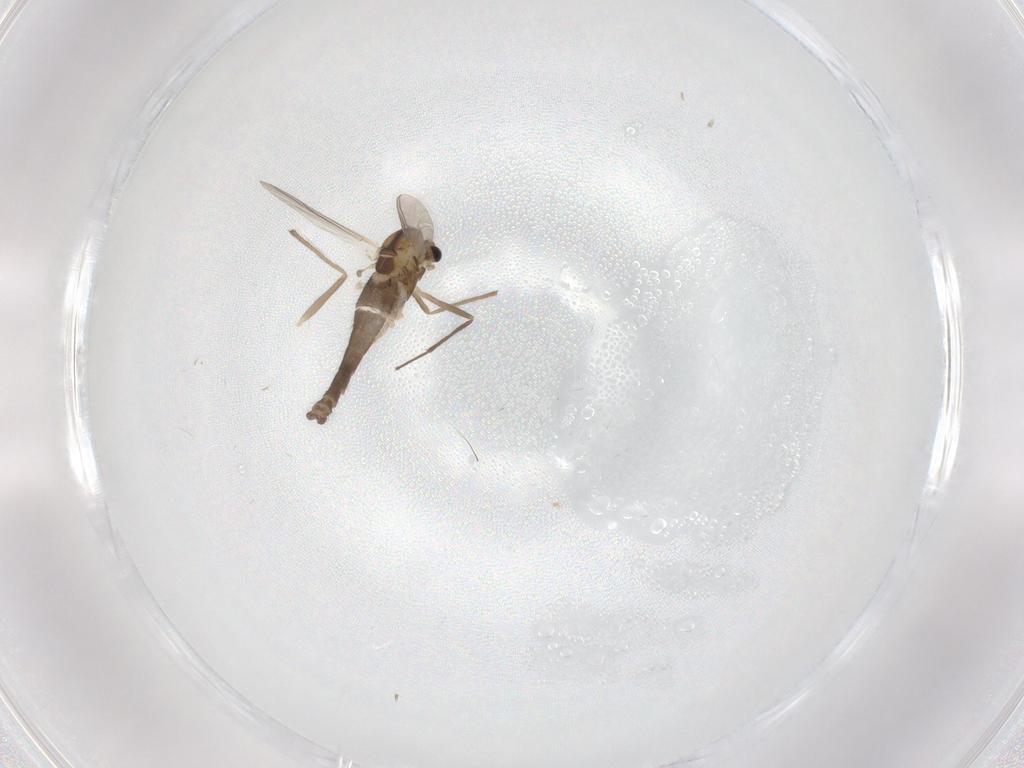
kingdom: Animalia
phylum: Arthropoda
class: Insecta
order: Diptera
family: Chironomidae
